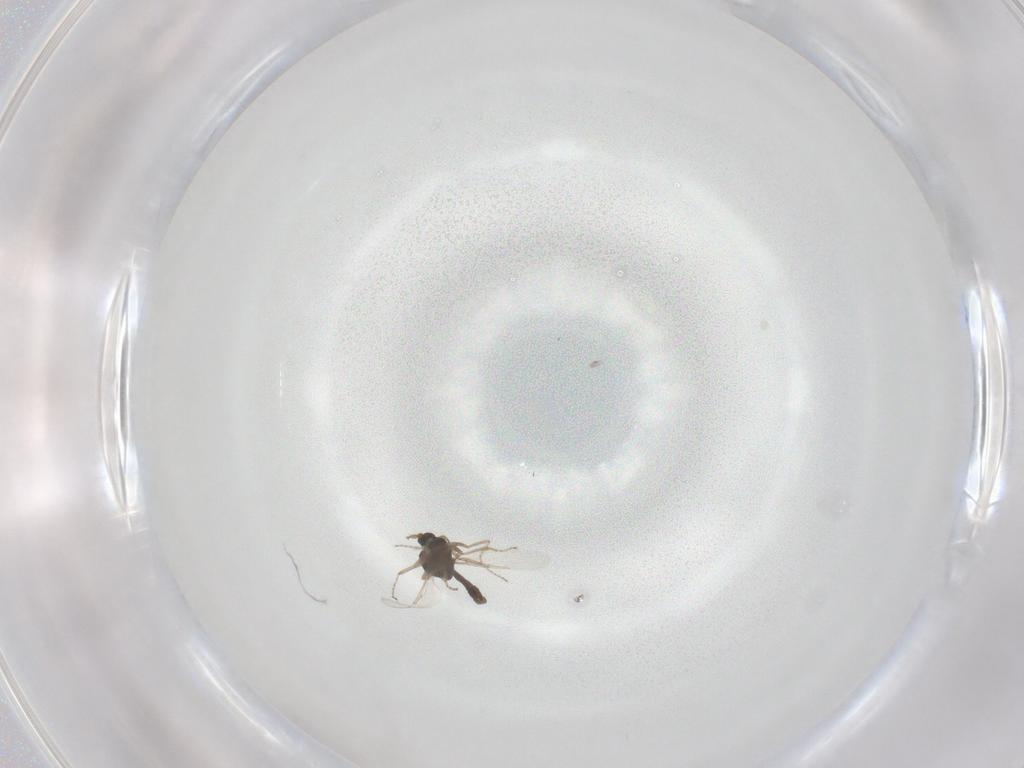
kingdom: Animalia
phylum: Arthropoda
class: Insecta
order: Diptera
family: Ceratopogonidae
